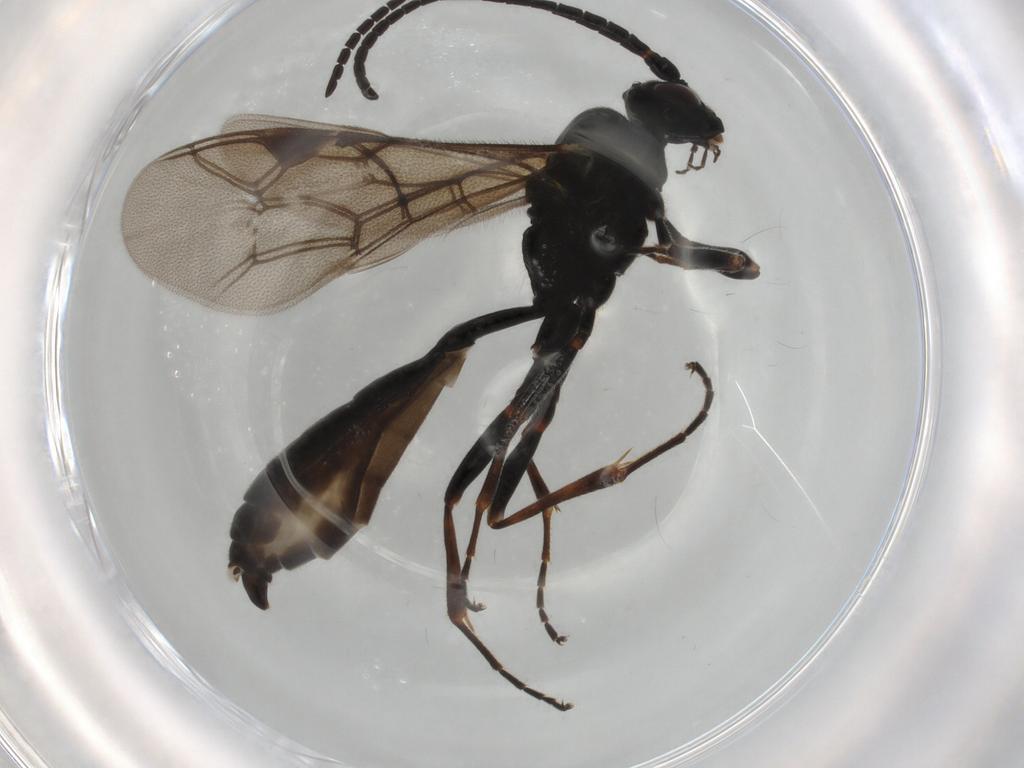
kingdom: Animalia
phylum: Arthropoda
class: Insecta
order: Hymenoptera
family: Ichneumonidae
